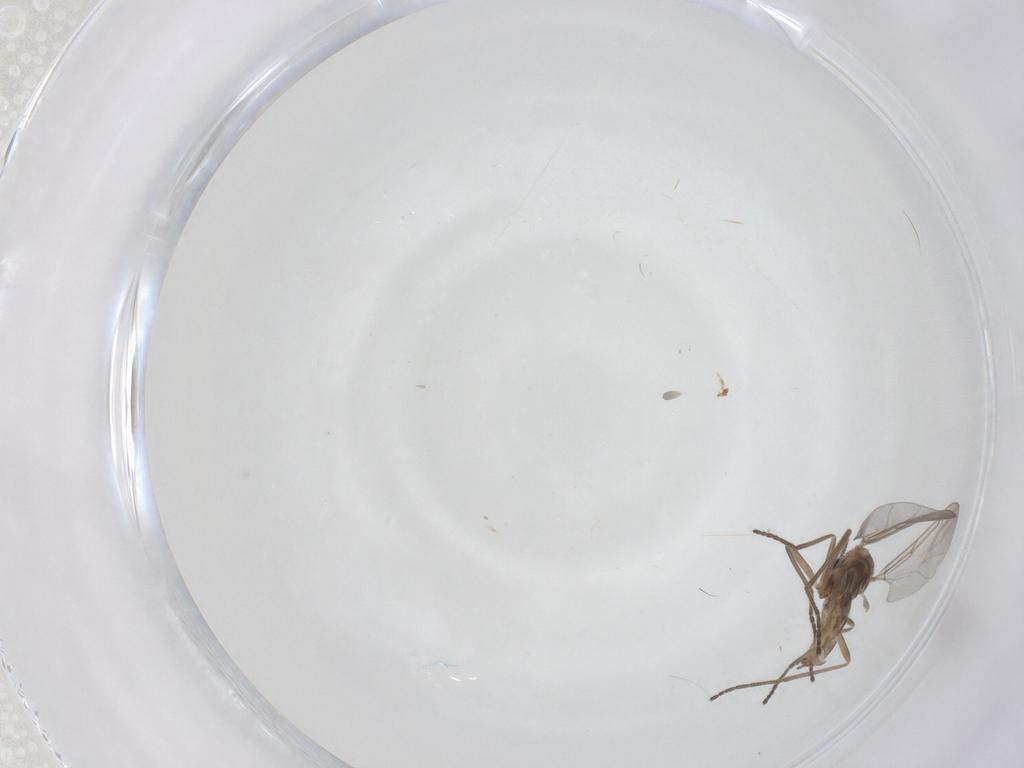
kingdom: Animalia
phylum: Arthropoda
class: Insecta
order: Diptera
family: Cecidomyiidae
